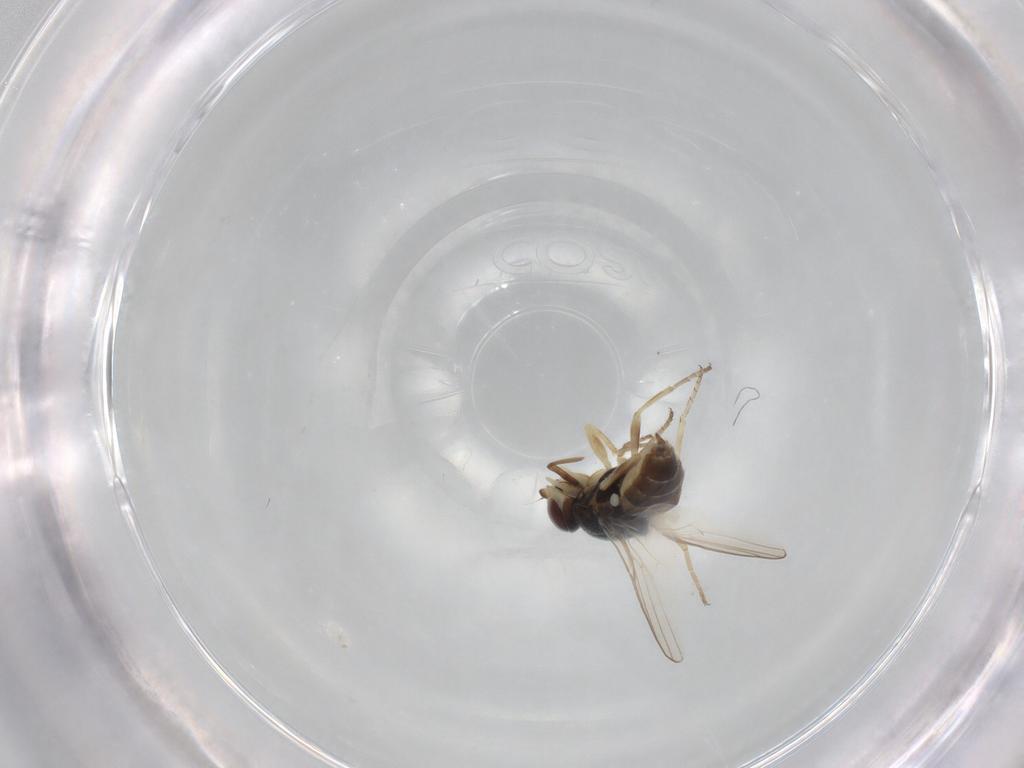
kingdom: Animalia
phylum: Arthropoda
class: Insecta
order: Diptera
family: Chloropidae
